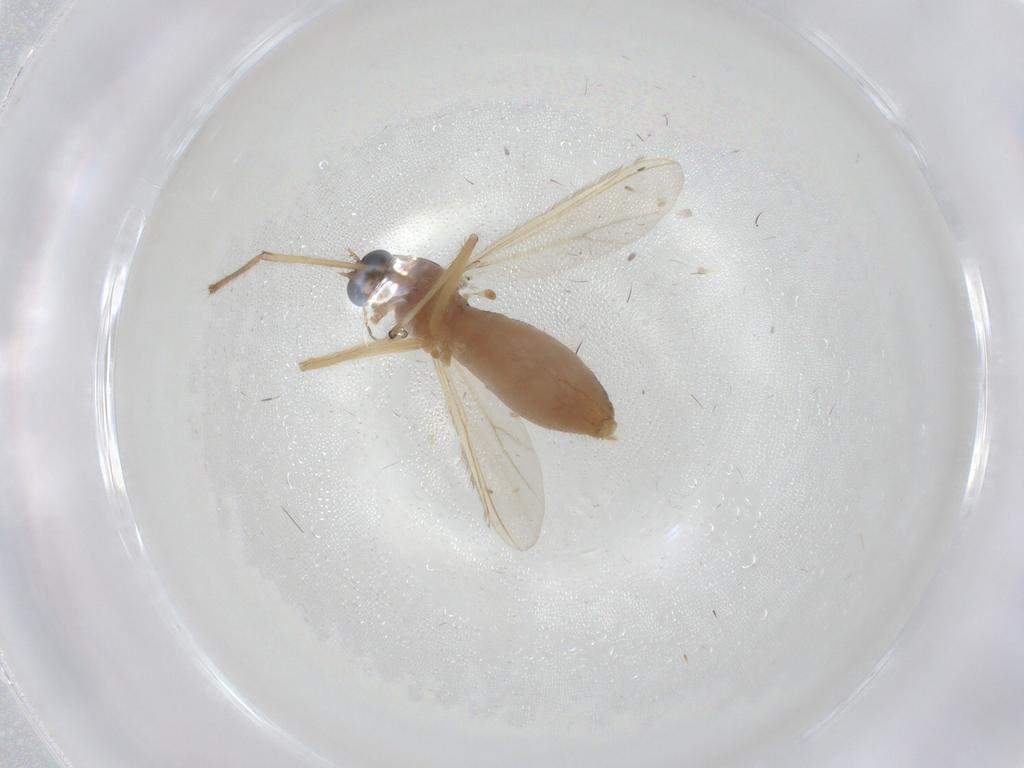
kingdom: Animalia
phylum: Arthropoda
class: Insecta
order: Diptera
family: Chironomidae
